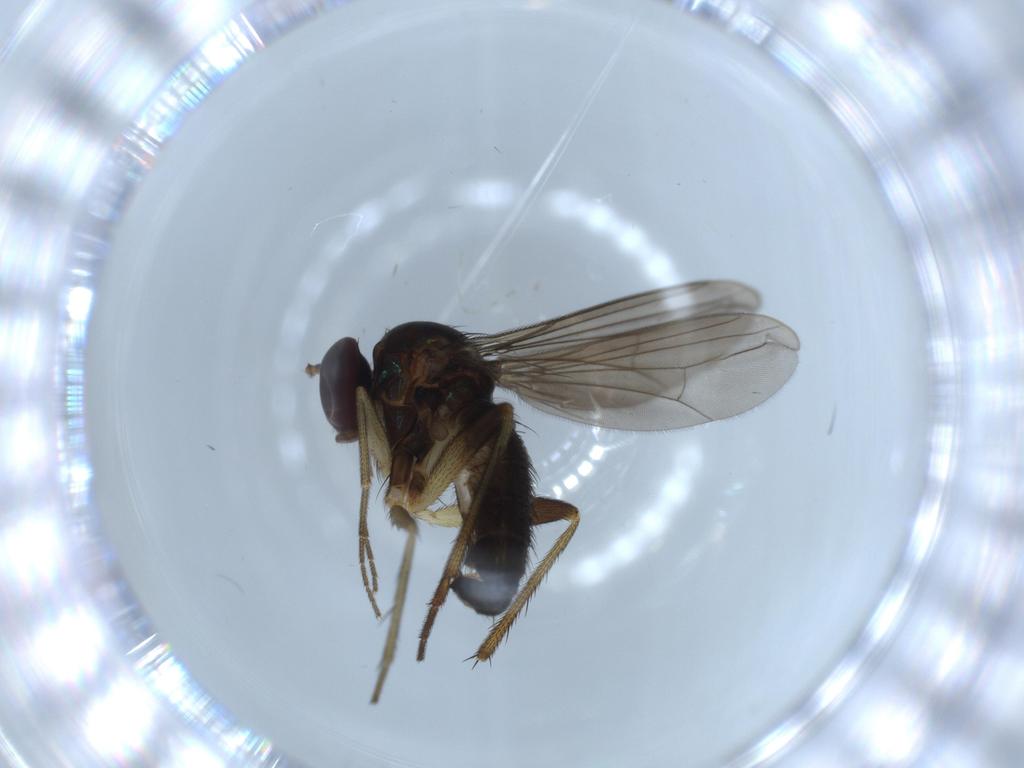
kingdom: Animalia
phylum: Arthropoda
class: Insecta
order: Diptera
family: Dolichopodidae
